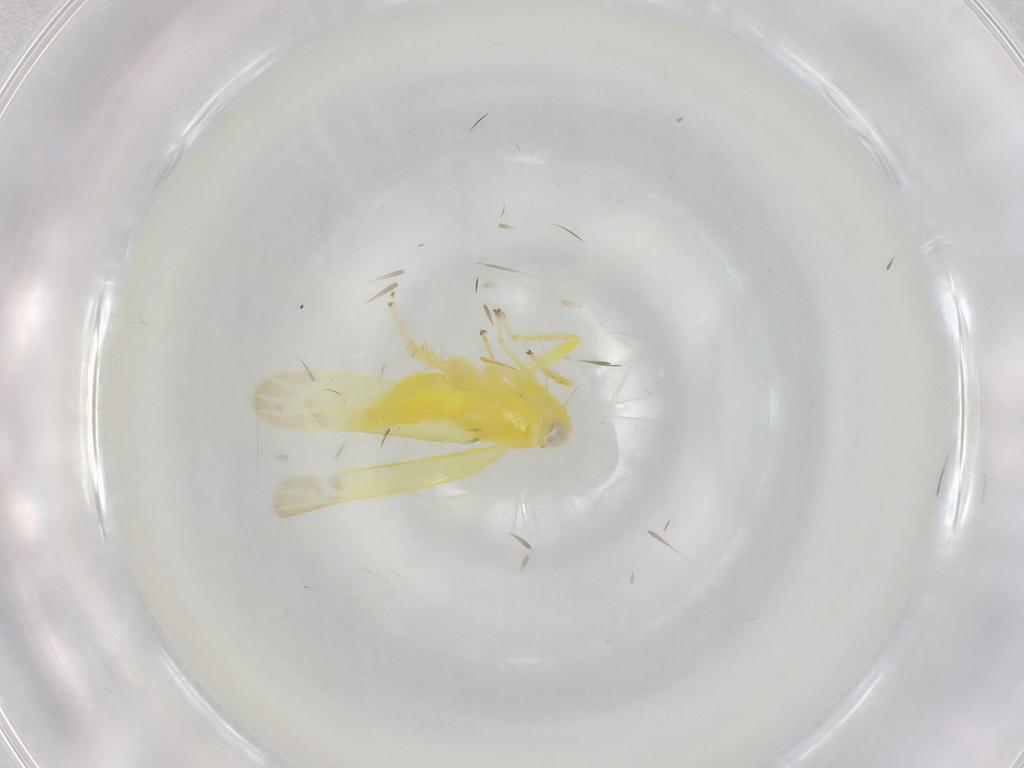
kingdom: Animalia
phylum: Arthropoda
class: Insecta
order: Hemiptera
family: Cicadellidae
